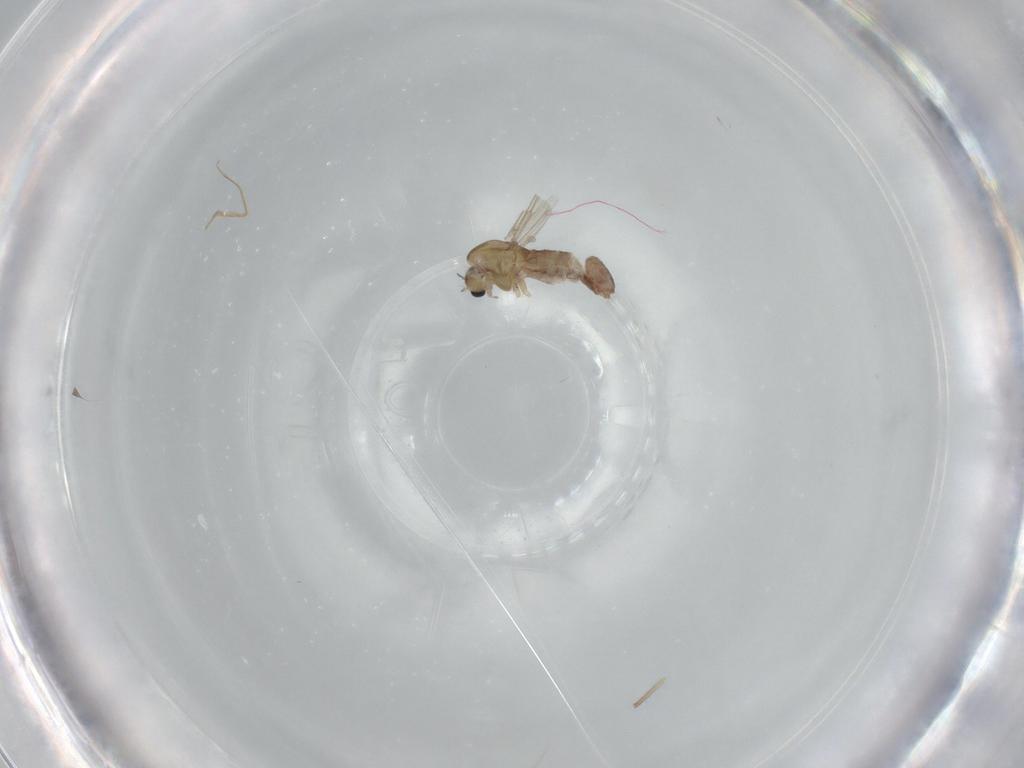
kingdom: Animalia
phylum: Arthropoda
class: Insecta
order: Diptera
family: Chironomidae
